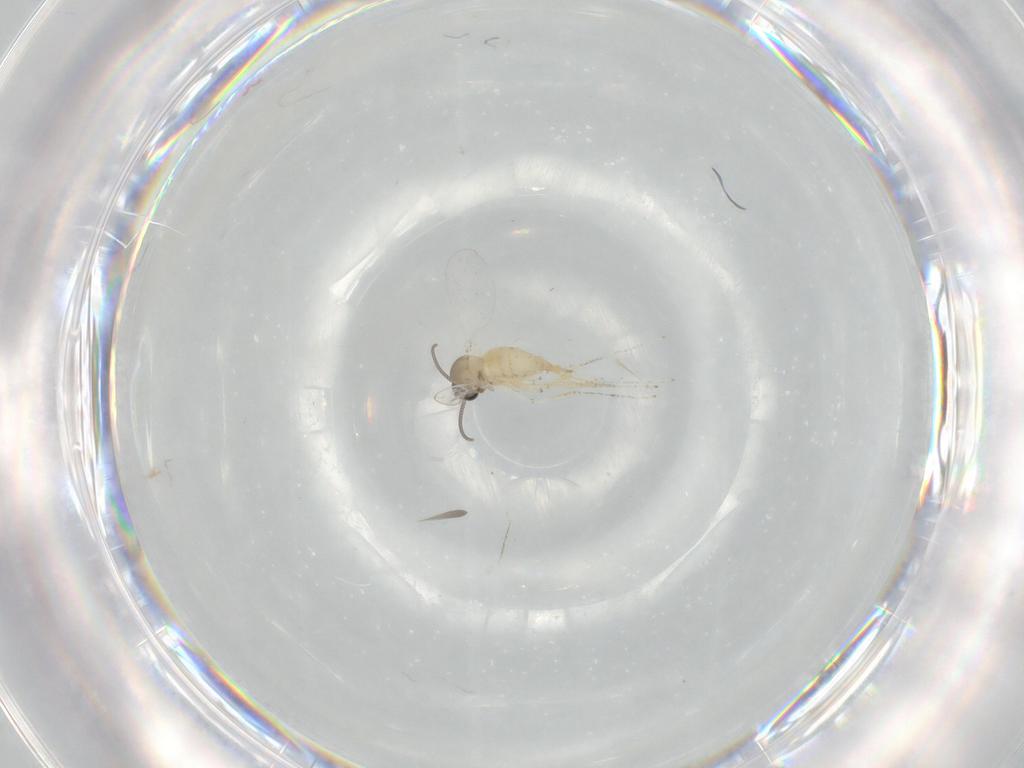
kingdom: Animalia
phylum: Arthropoda
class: Insecta
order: Diptera
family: Cecidomyiidae
